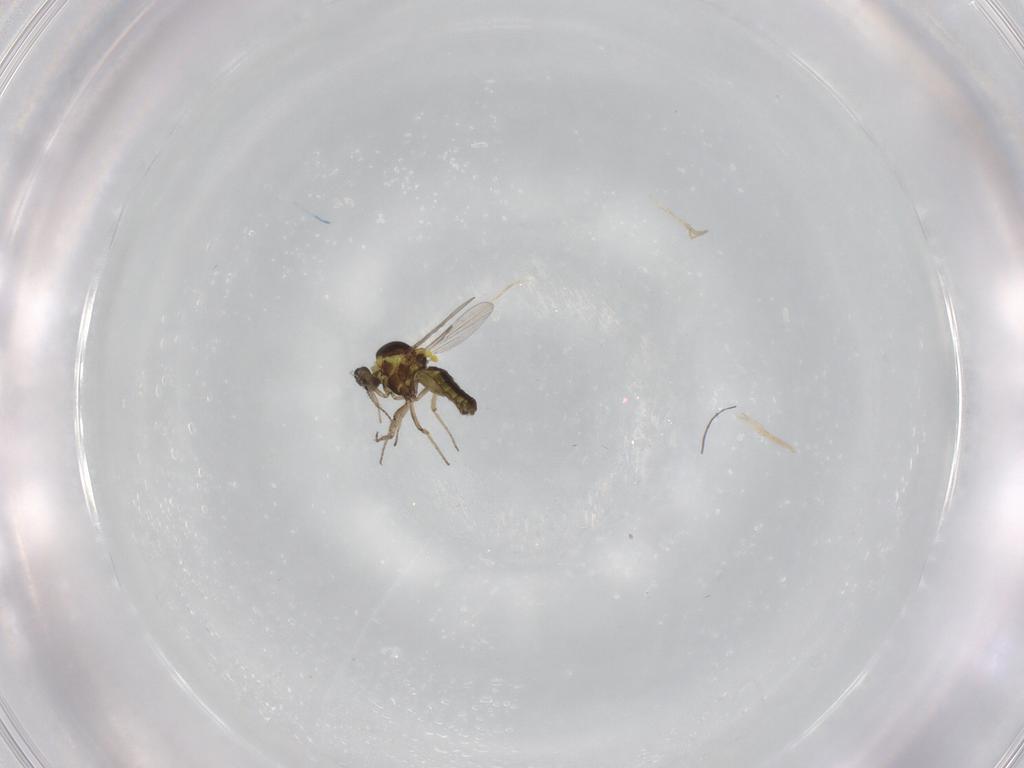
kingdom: Animalia
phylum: Arthropoda
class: Insecta
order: Diptera
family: Ceratopogonidae
